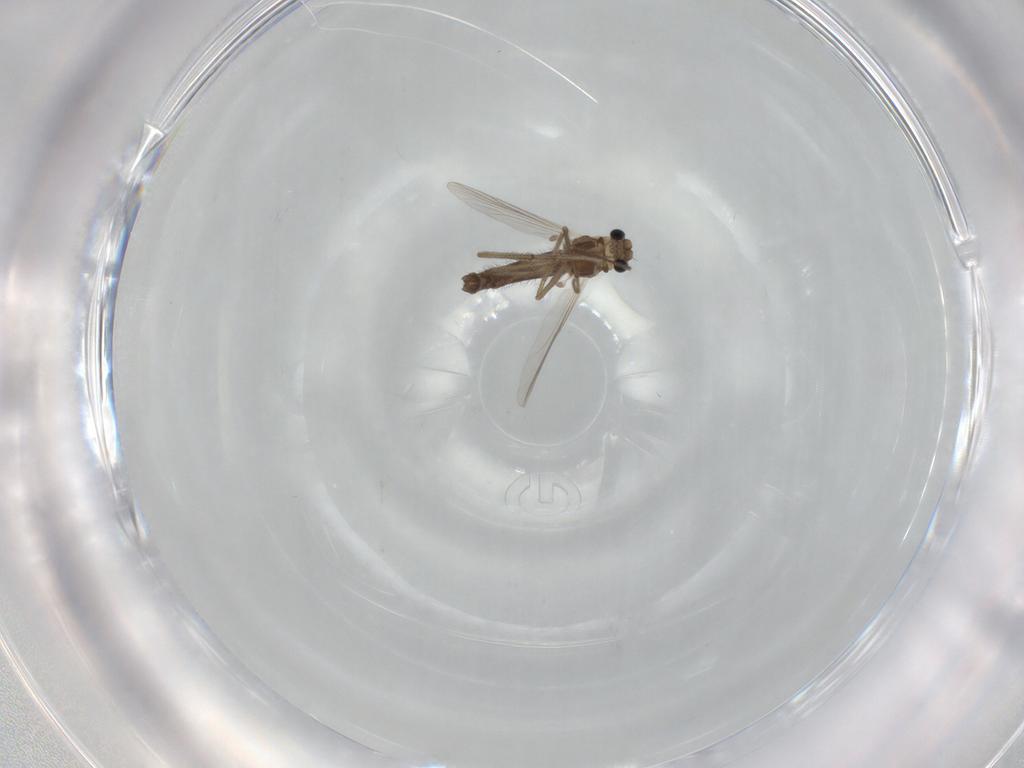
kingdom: Animalia
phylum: Arthropoda
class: Insecta
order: Diptera
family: Chironomidae
